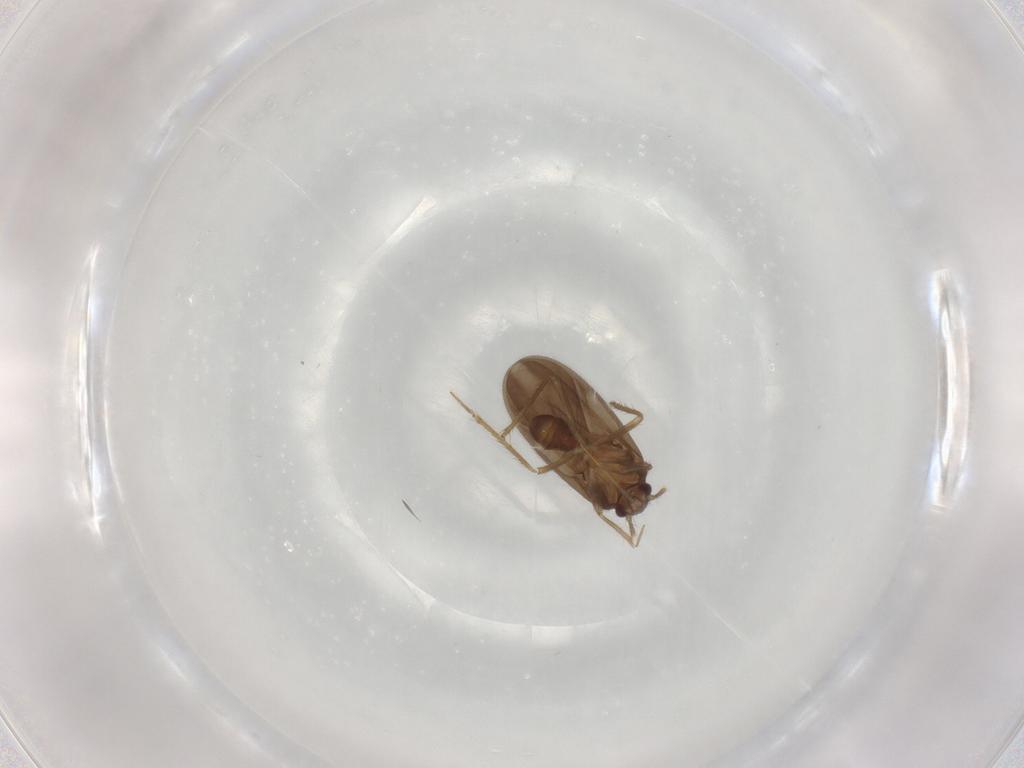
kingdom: Animalia
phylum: Arthropoda
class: Insecta
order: Hemiptera
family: Ceratocombidae
